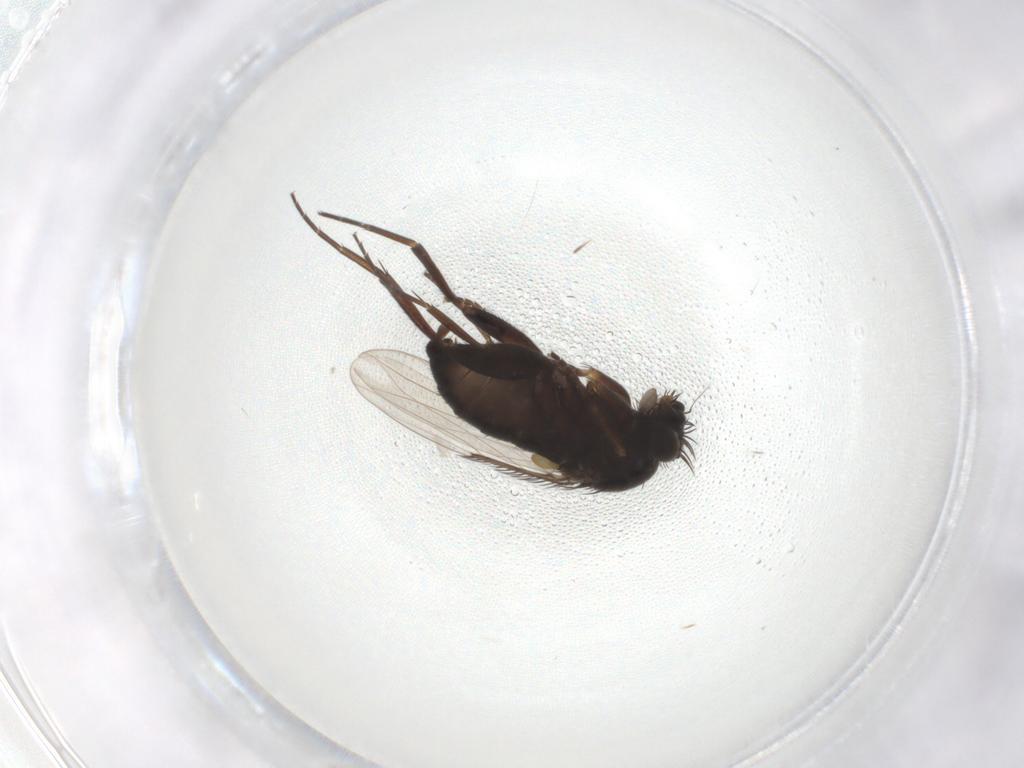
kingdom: Animalia
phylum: Arthropoda
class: Insecta
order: Diptera
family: Phoridae
